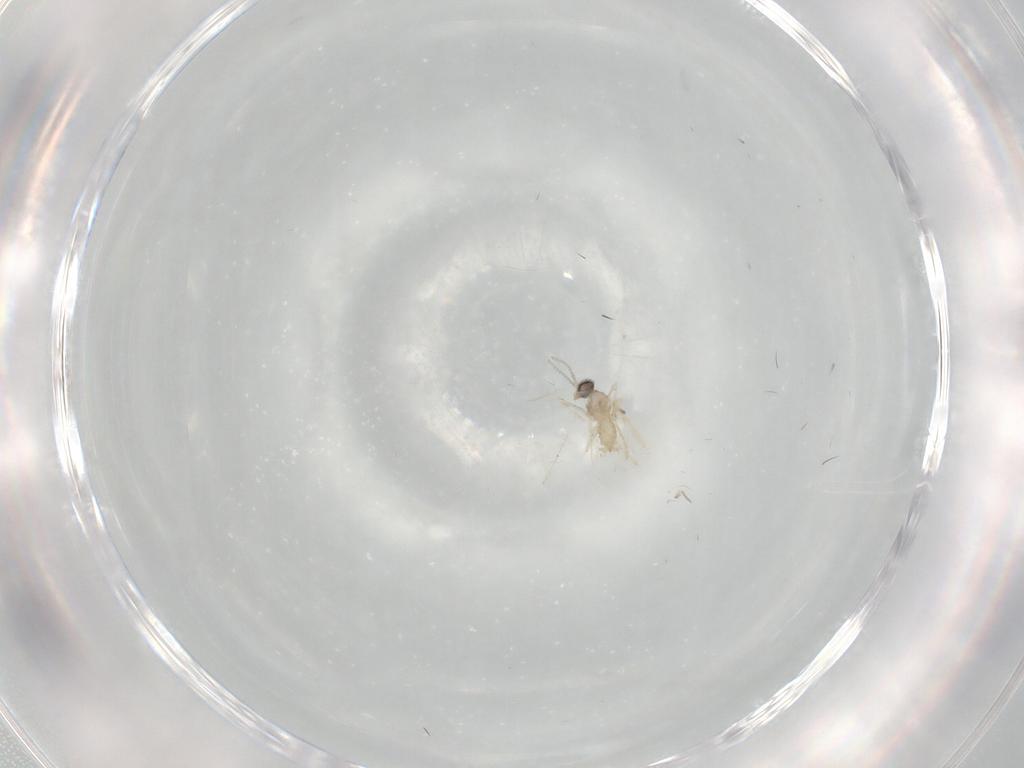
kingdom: Animalia
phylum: Arthropoda
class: Insecta
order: Diptera
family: Cecidomyiidae
